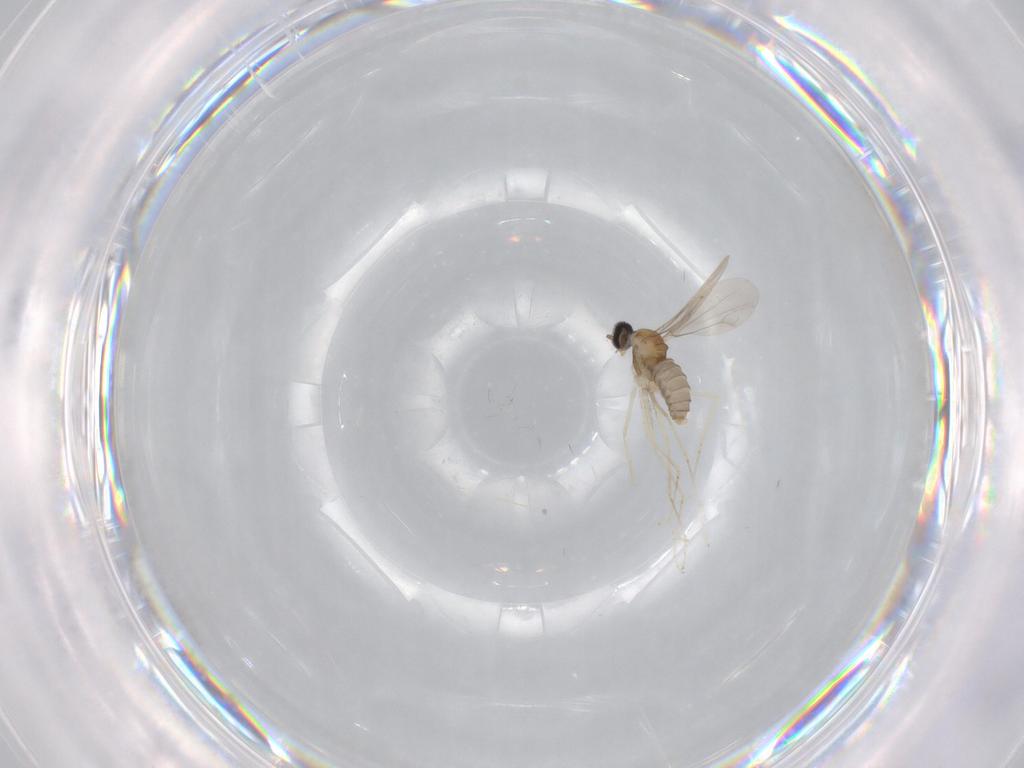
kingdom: Animalia
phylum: Arthropoda
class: Insecta
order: Diptera
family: Cecidomyiidae
